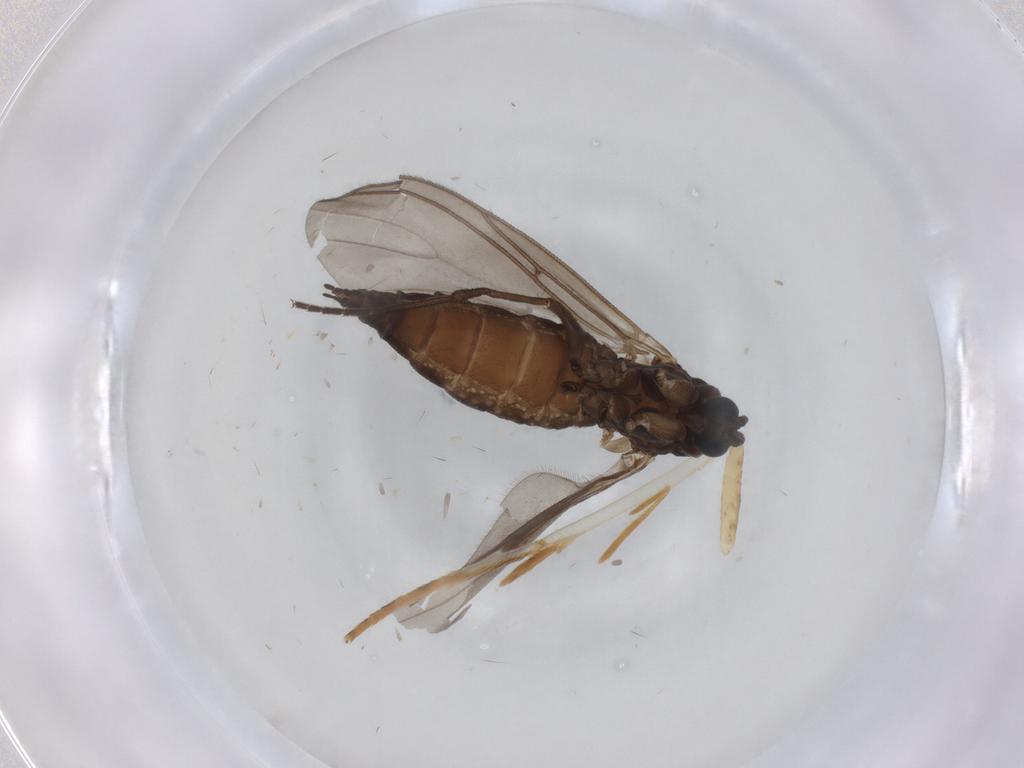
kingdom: Animalia
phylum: Arthropoda
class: Insecta
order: Diptera
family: Sciaridae
